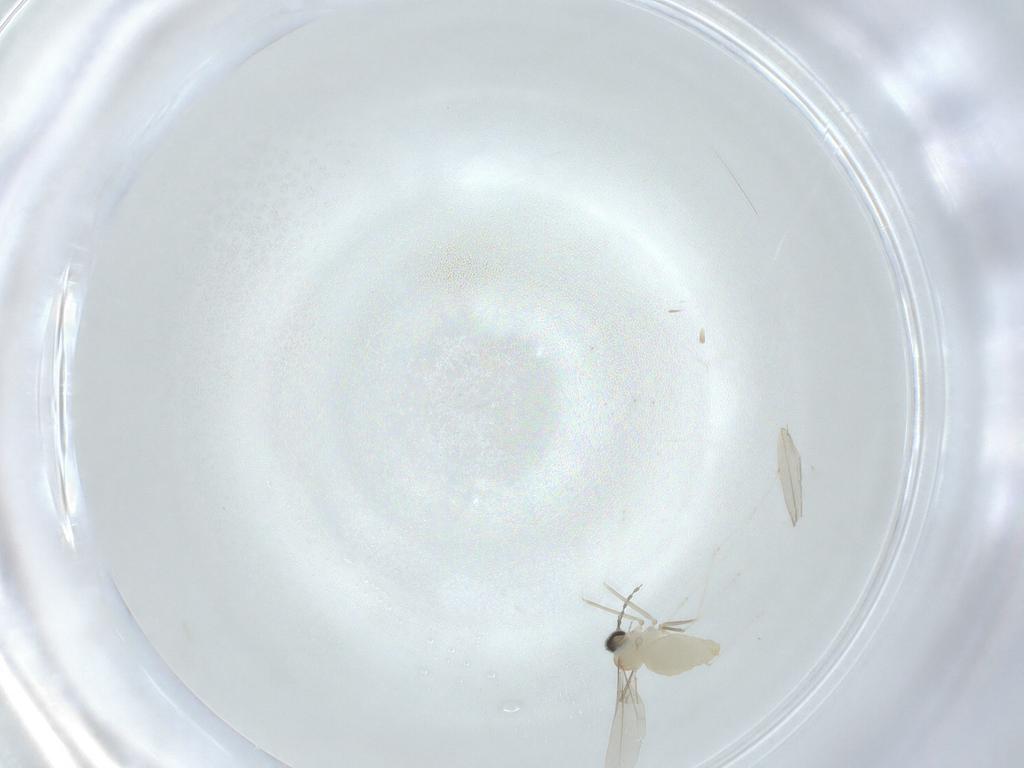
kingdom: Animalia
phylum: Arthropoda
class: Insecta
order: Diptera
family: Cecidomyiidae
